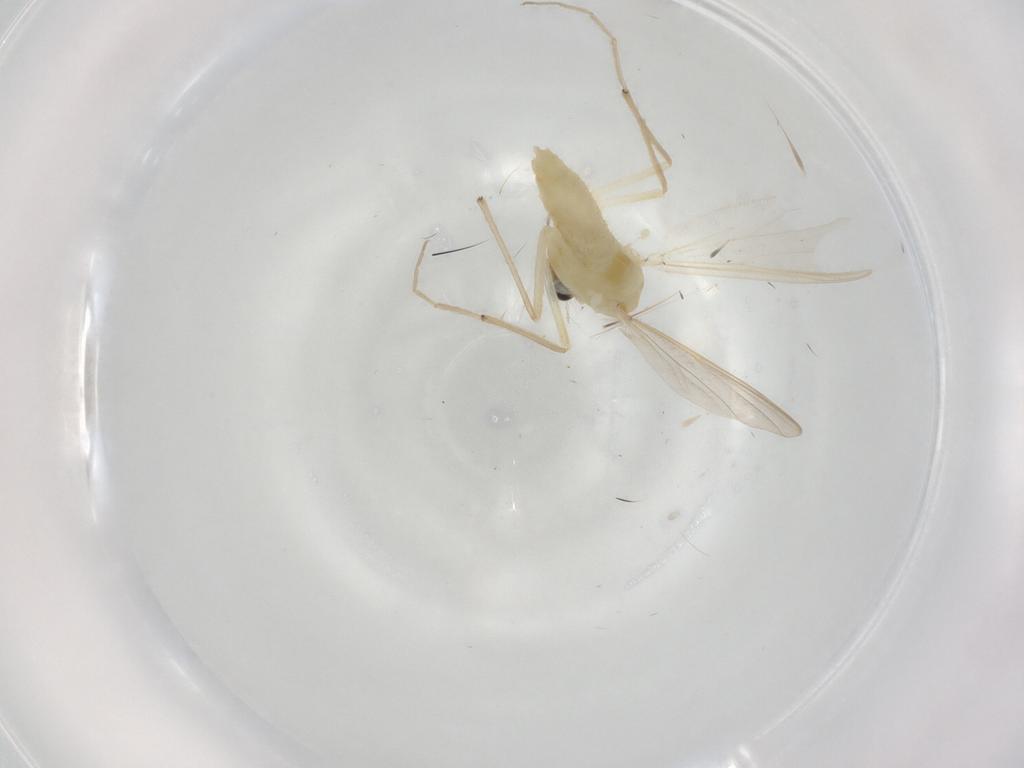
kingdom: Animalia
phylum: Arthropoda
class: Insecta
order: Diptera
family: Chironomidae
